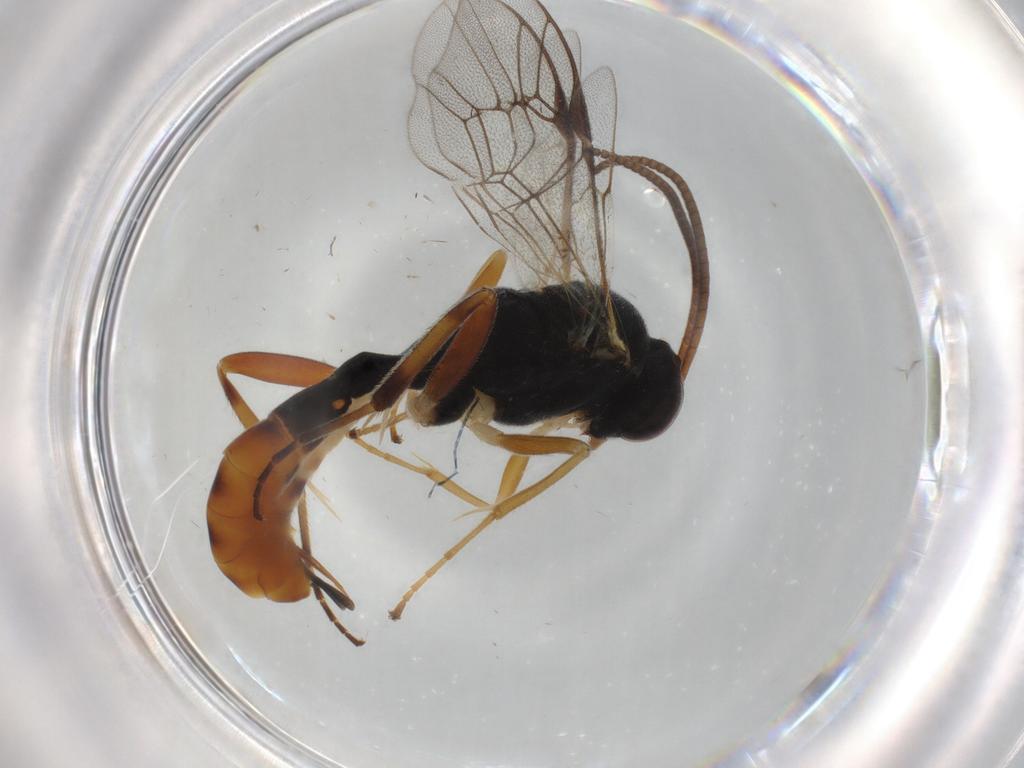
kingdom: Animalia
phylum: Arthropoda
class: Insecta
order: Hymenoptera
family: Ichneumonidae
